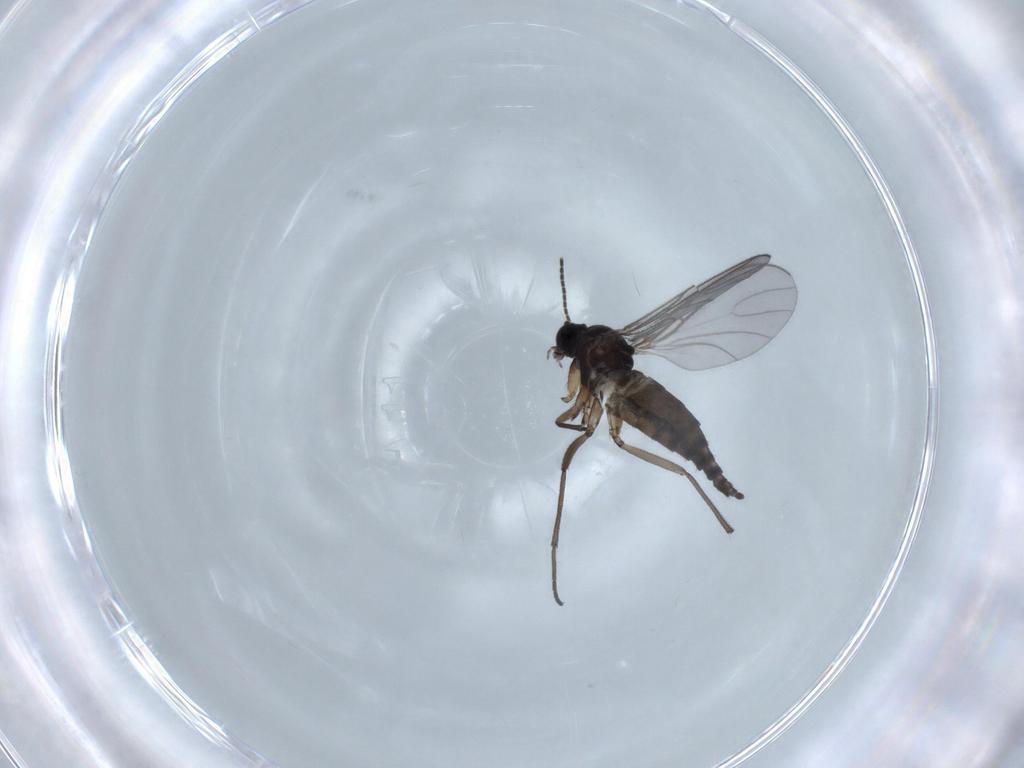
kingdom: Animalia
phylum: Arthropoda
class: Insecta
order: Diptera
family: Sciaridae
